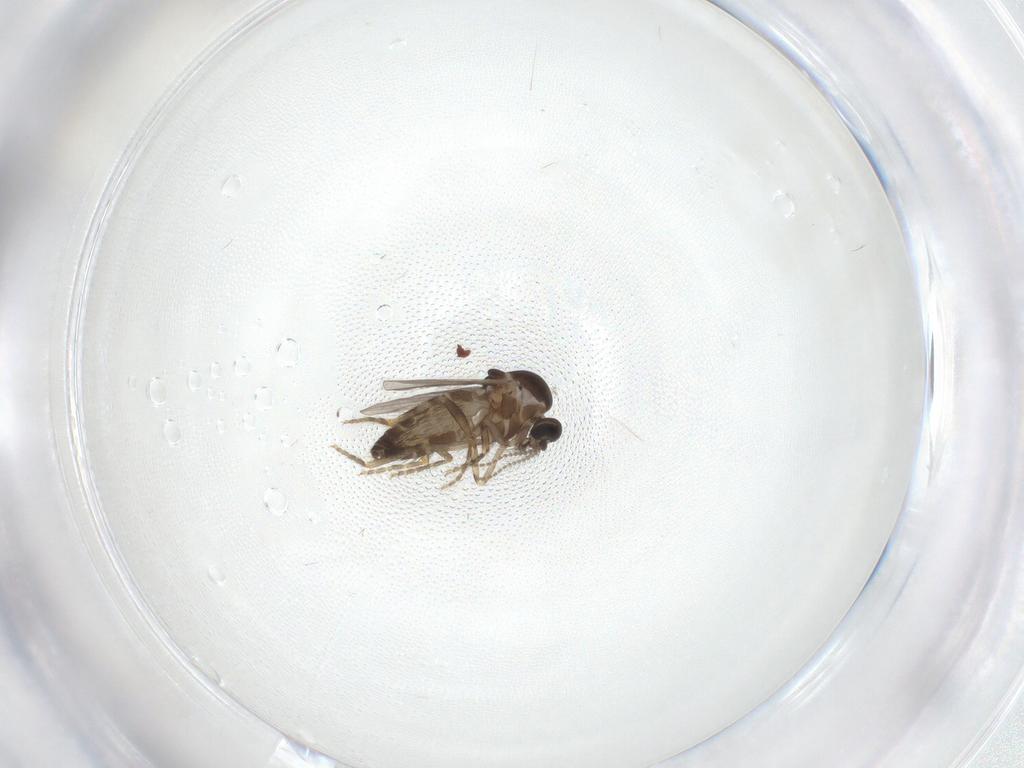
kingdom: Animalia
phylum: Arthropoda
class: Insecta
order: Diptera
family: Ceratopogonidae
